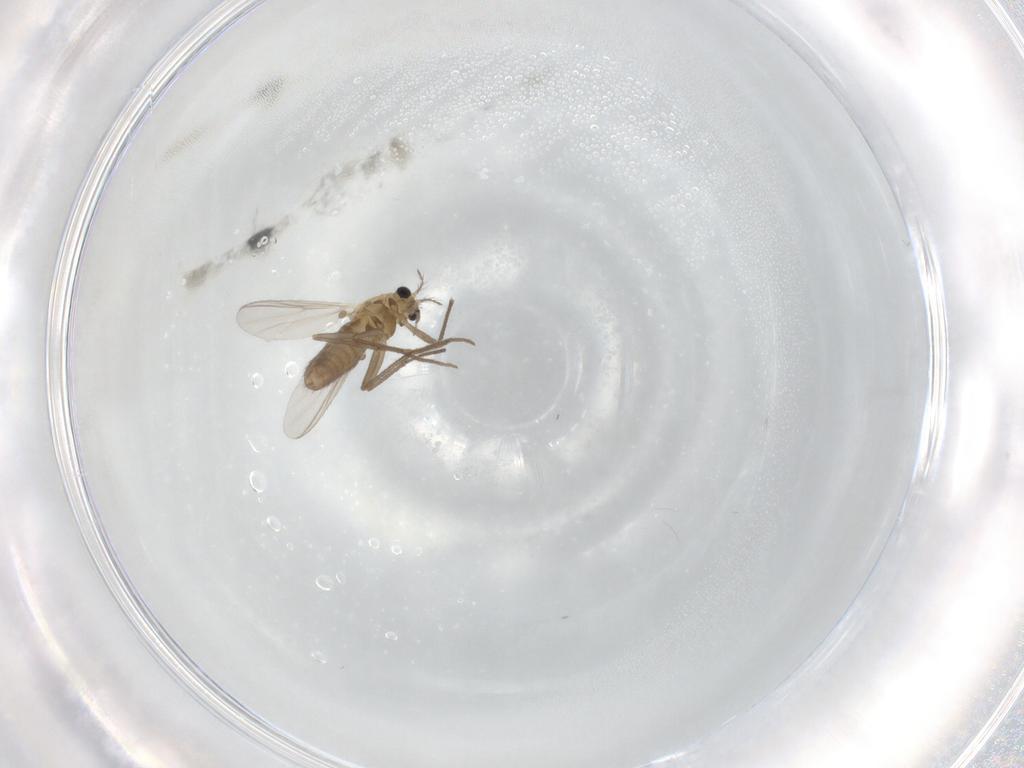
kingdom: Animalia
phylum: Arthropoda
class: Insecta
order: Diptera
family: Chironomidae
